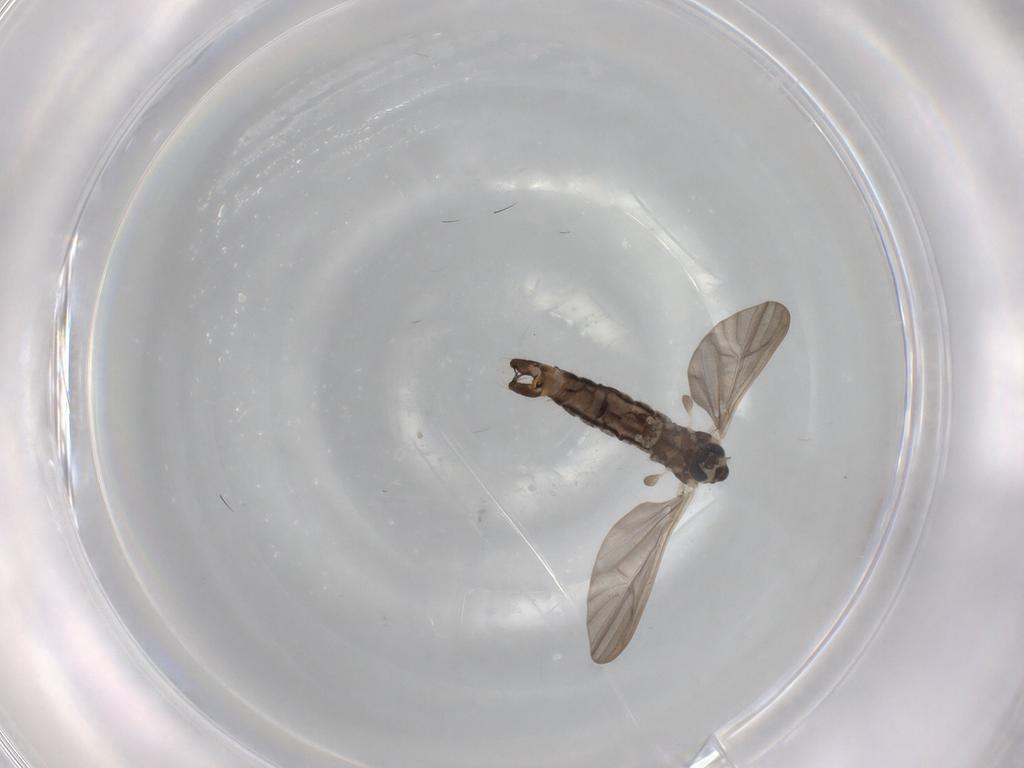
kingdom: Animalia
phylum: Arthropoda
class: Insecta
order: Diptera
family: Limoniidae
